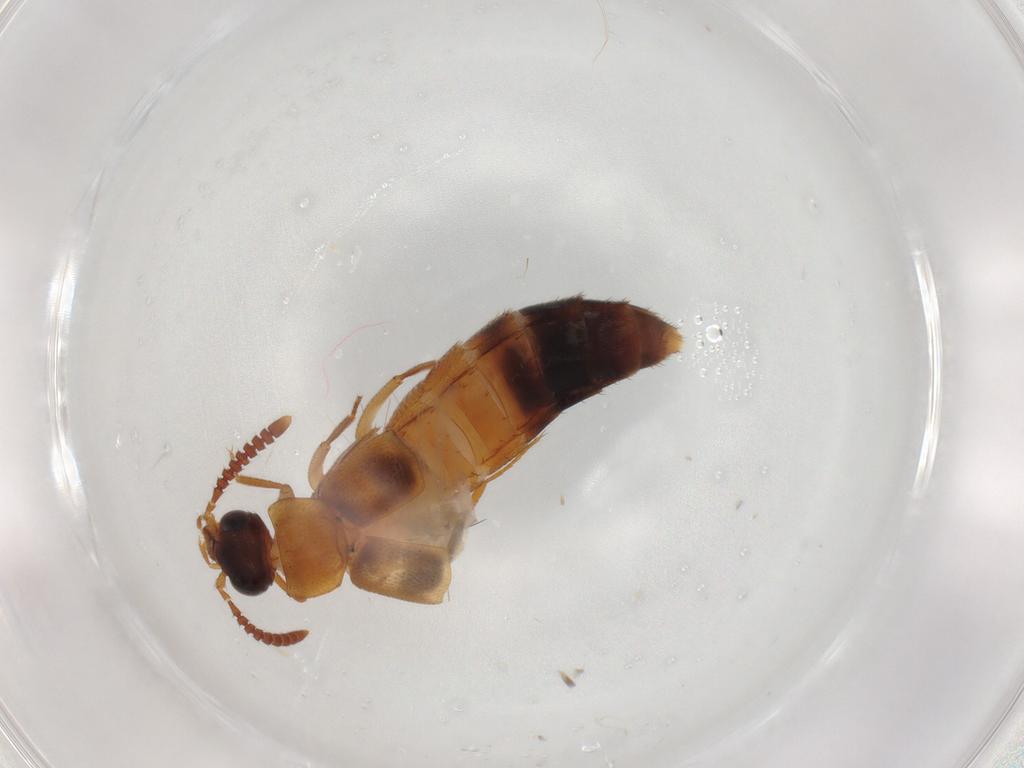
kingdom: Animalia
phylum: Arthropoda
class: Insecta
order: Coleoptera
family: Staphylinidae
